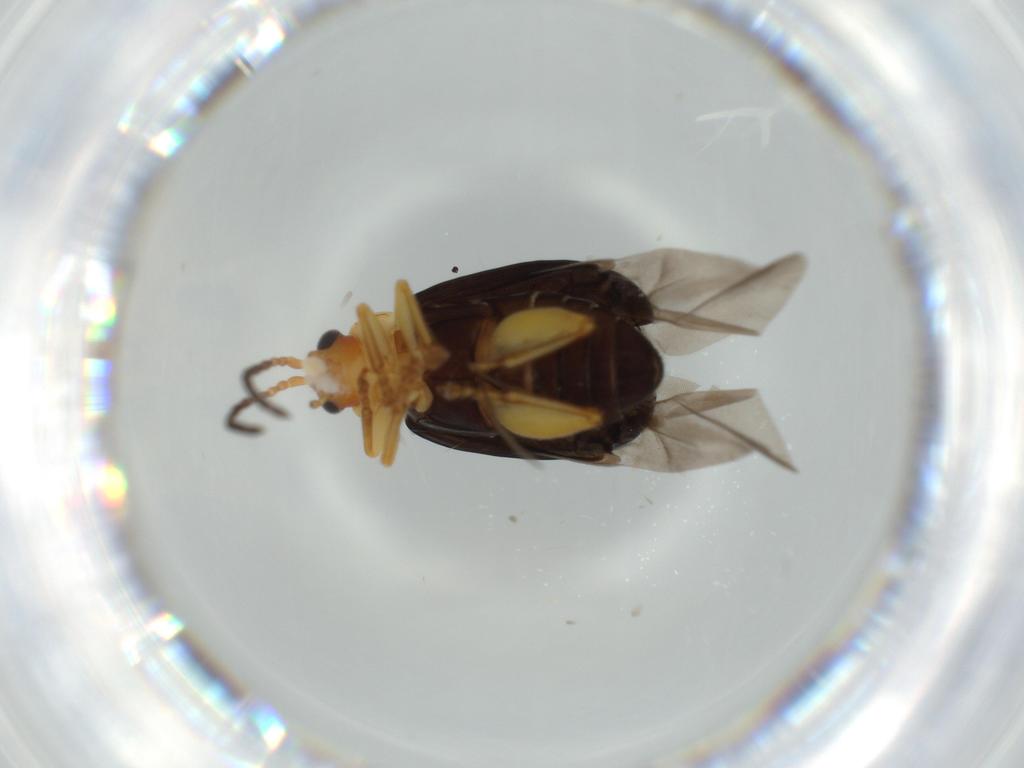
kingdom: Animalia
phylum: Arthropoda
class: Insecta
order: Coleoptera
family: Chrysomelidae
